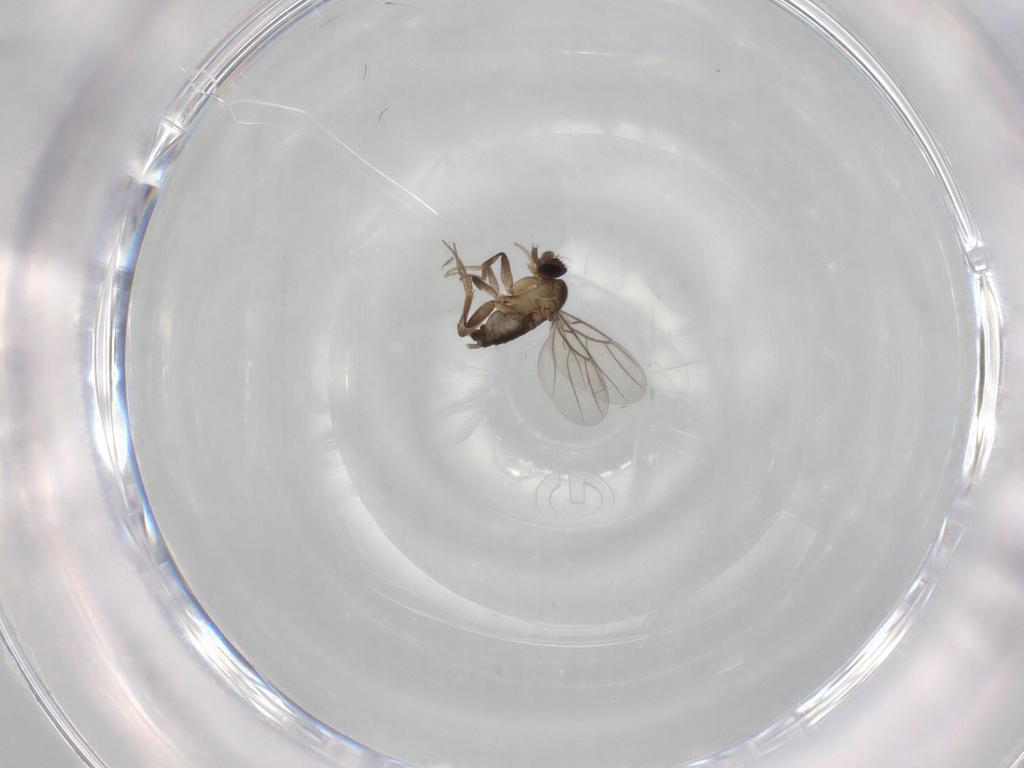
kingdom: Animalia
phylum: Arthropoda
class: Insecta
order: Diptera
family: Phoridae
